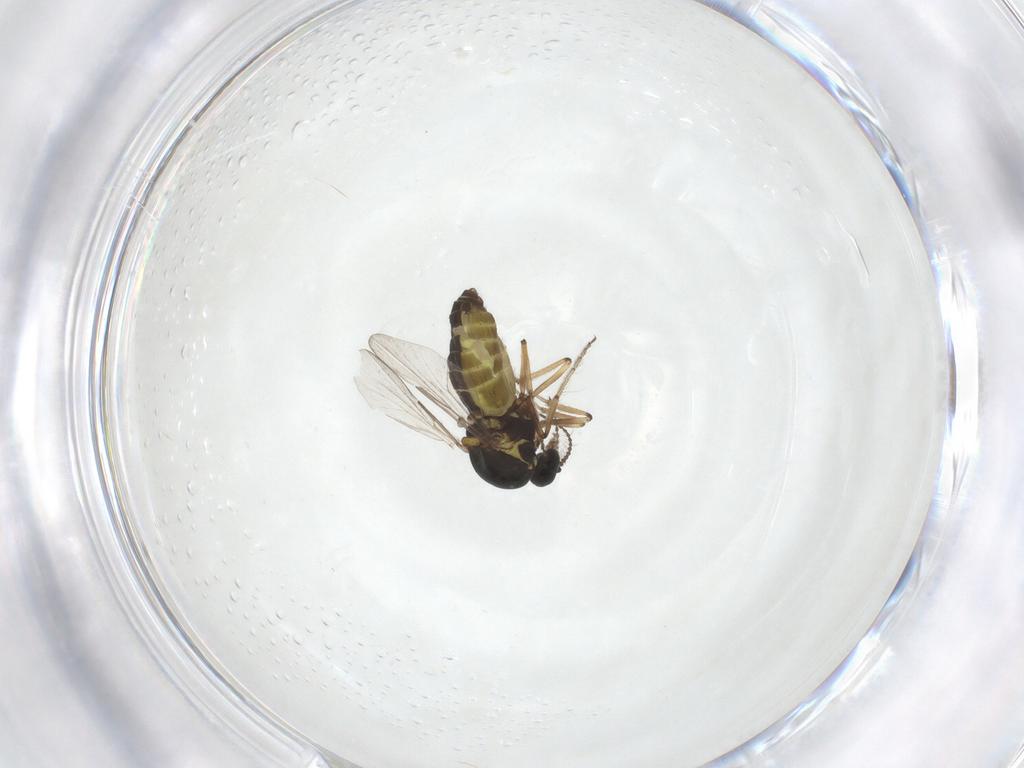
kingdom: Animalia
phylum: Arthropoda
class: Insecta
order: Diptera
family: Ceratopogonidae
